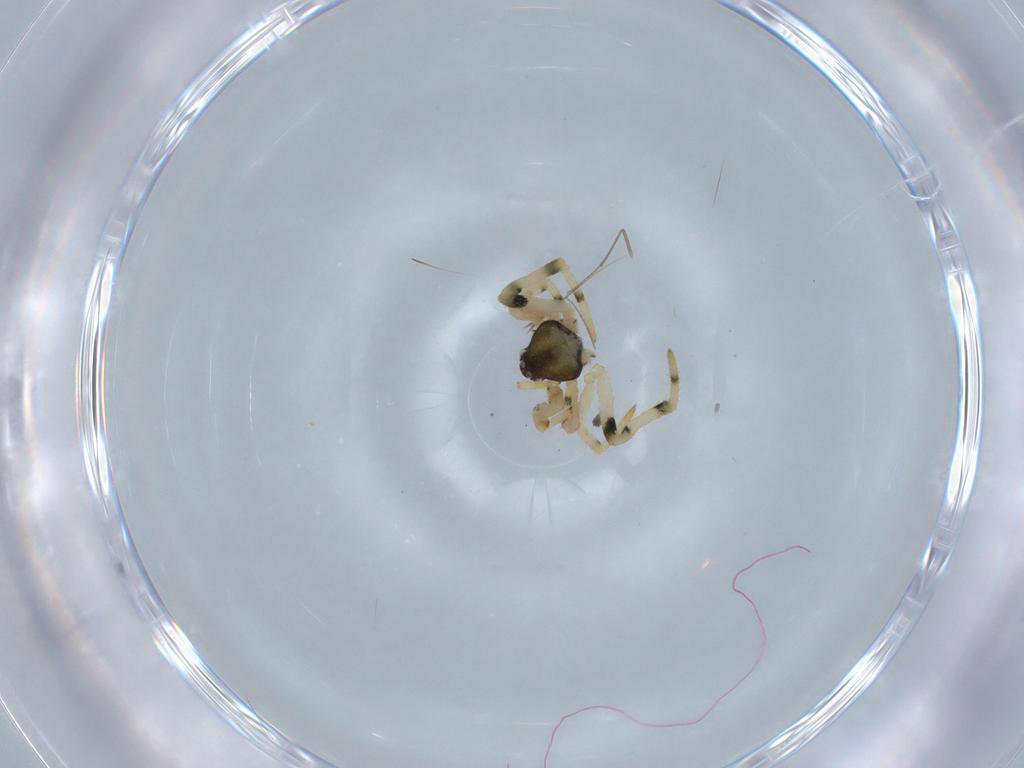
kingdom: Animalia
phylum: Arthropoda
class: Arachnida
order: Araneae
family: Theridiidae
